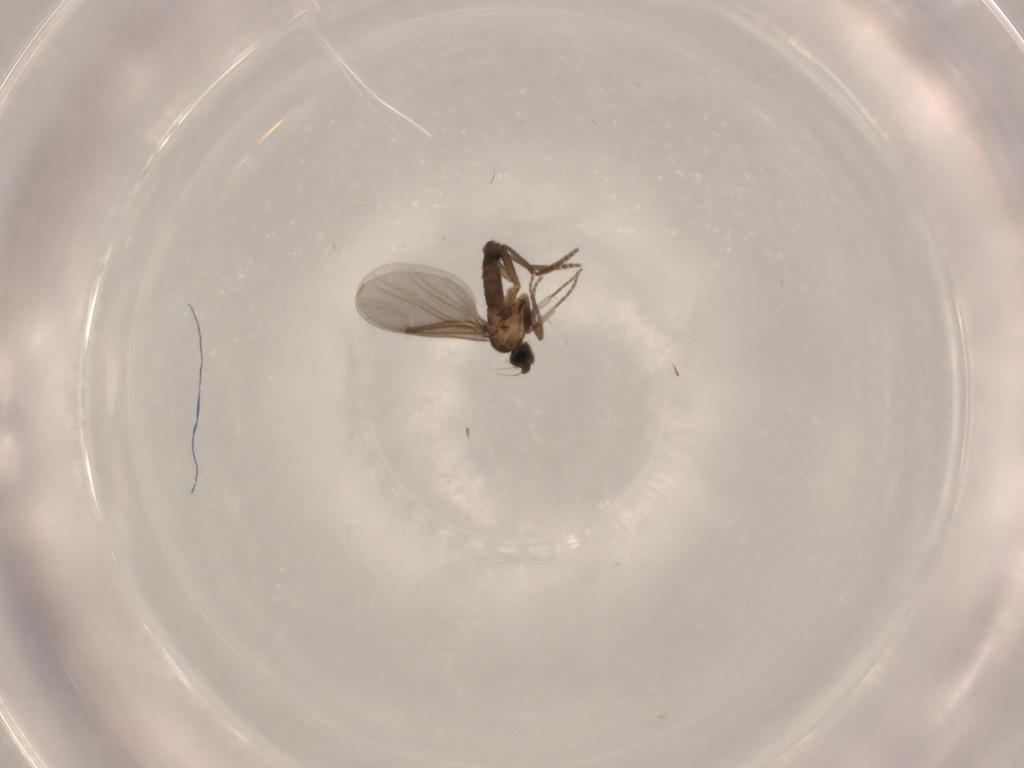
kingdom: Animalia
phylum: Arthropoda
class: Insecta
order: Diptera
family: Phoridae
